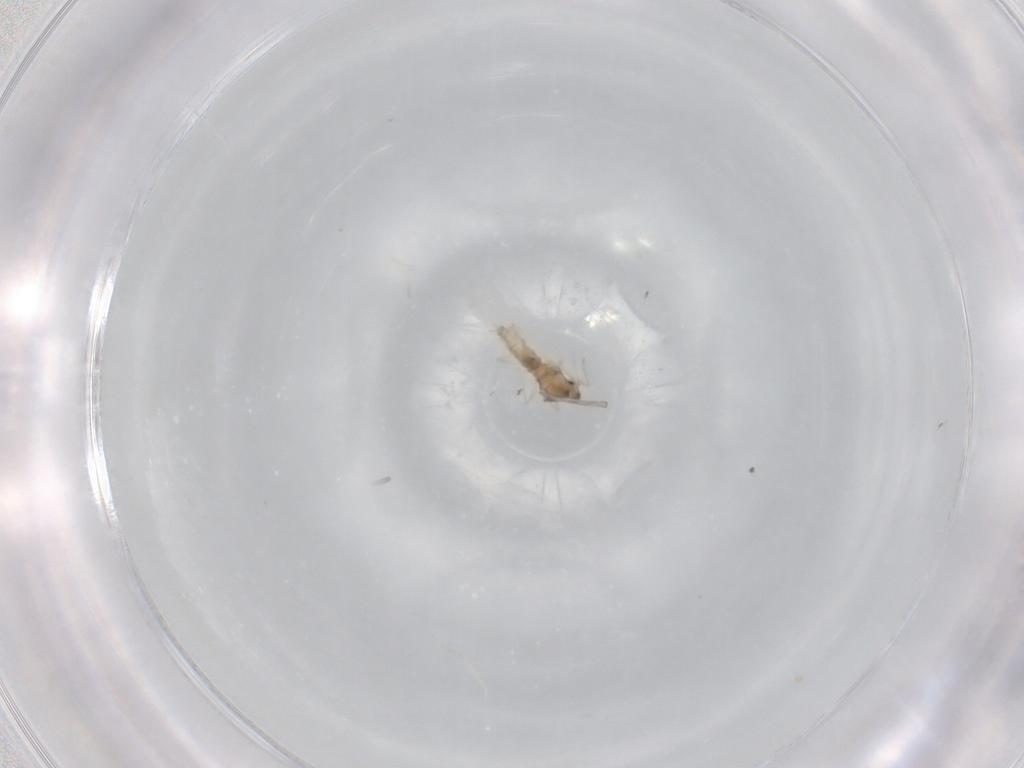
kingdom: Animalia
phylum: Arthropoda
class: Insecta
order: Diptera
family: Cecidomyiidae
